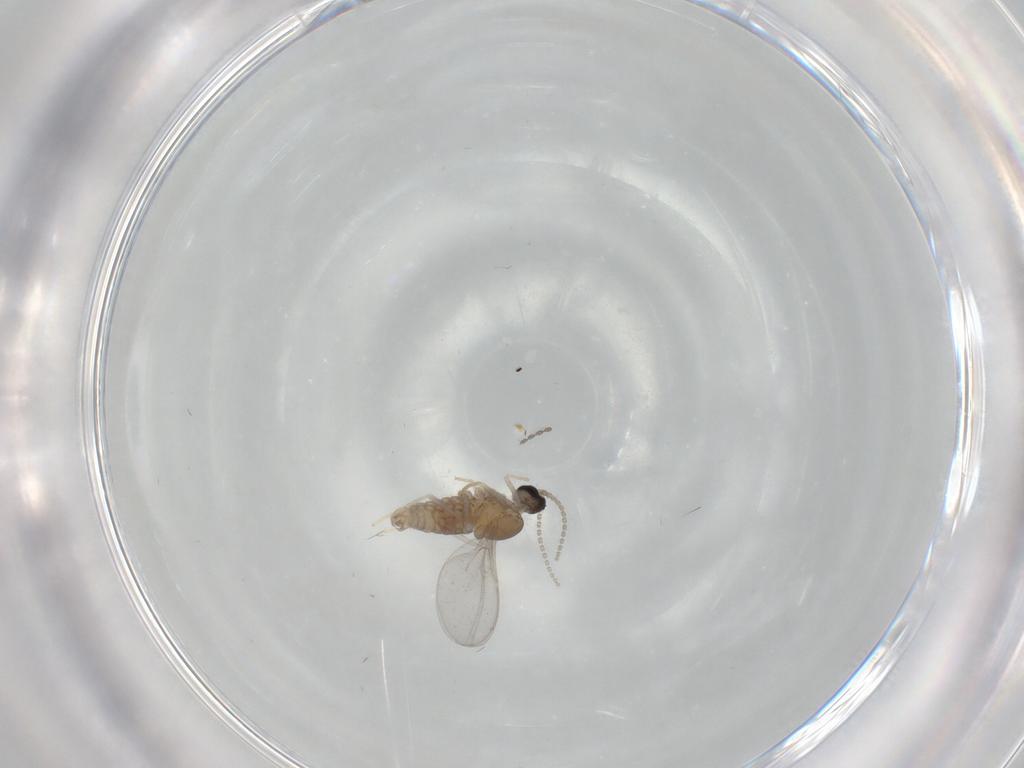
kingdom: Animalia
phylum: Arthropoda
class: Insecta
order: Diptera
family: Cecidomyiidae
